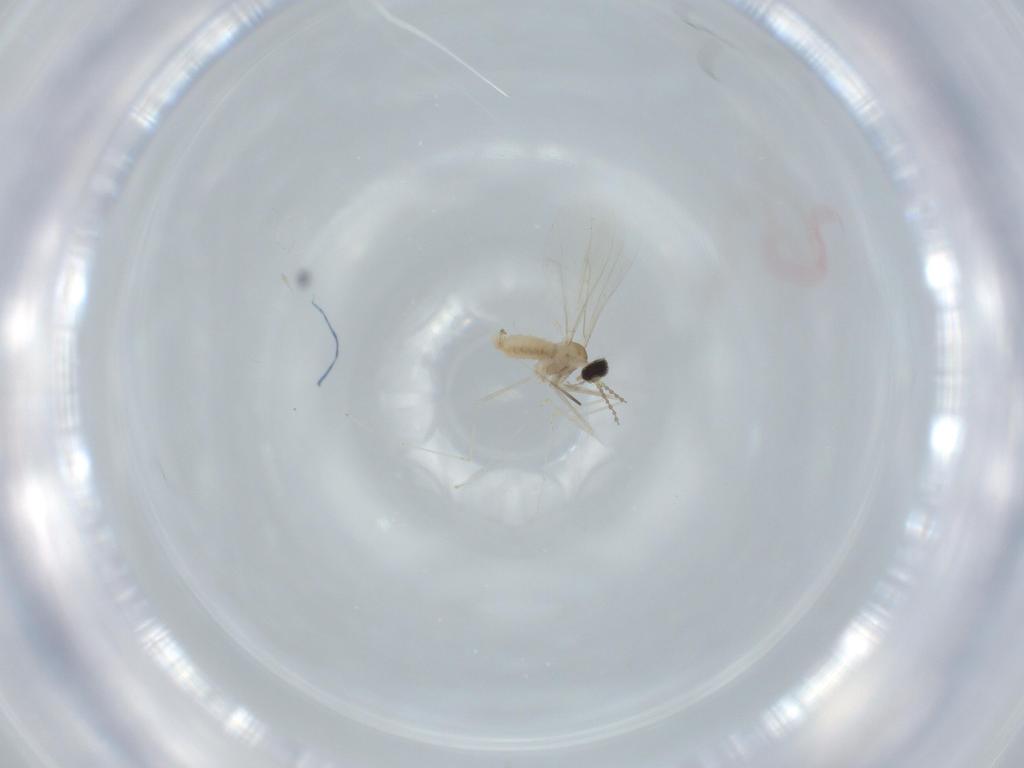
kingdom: Animalia
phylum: Arthropoda
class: Insecta
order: Diptera
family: Cecidomyiidae
